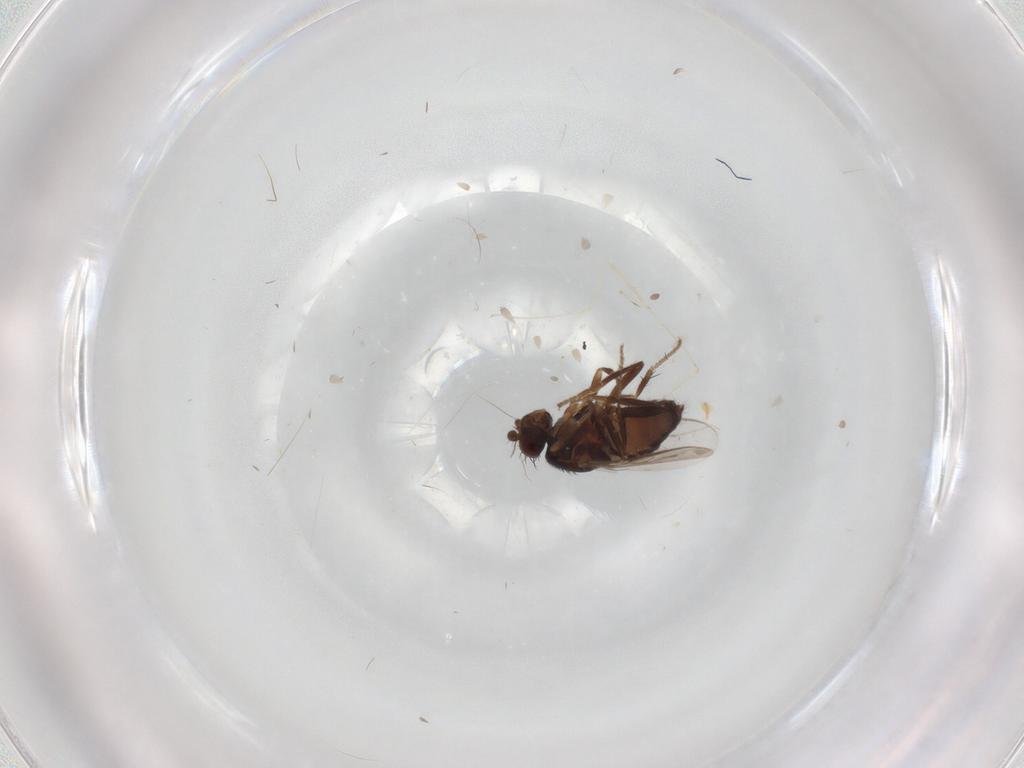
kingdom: Animalia
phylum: Arthropoda
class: Insecta
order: Diptera
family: Sphaeroceridae
